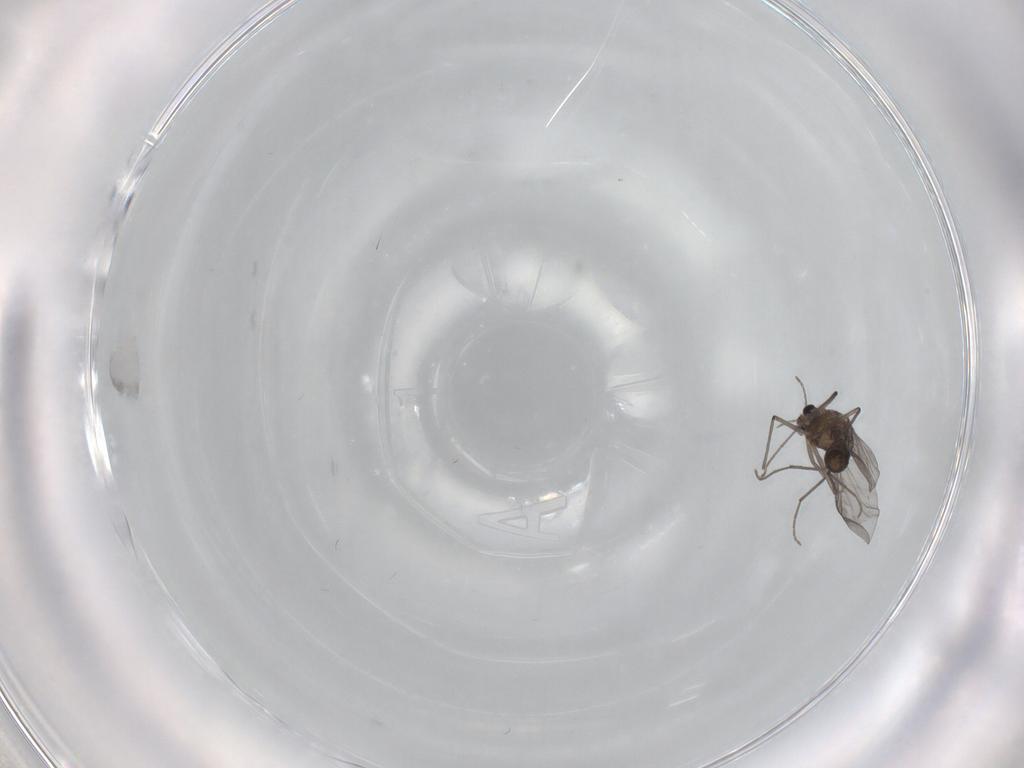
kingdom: Animalia
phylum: Arthropoda
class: Insecta
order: Diptera
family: Chironomidae
